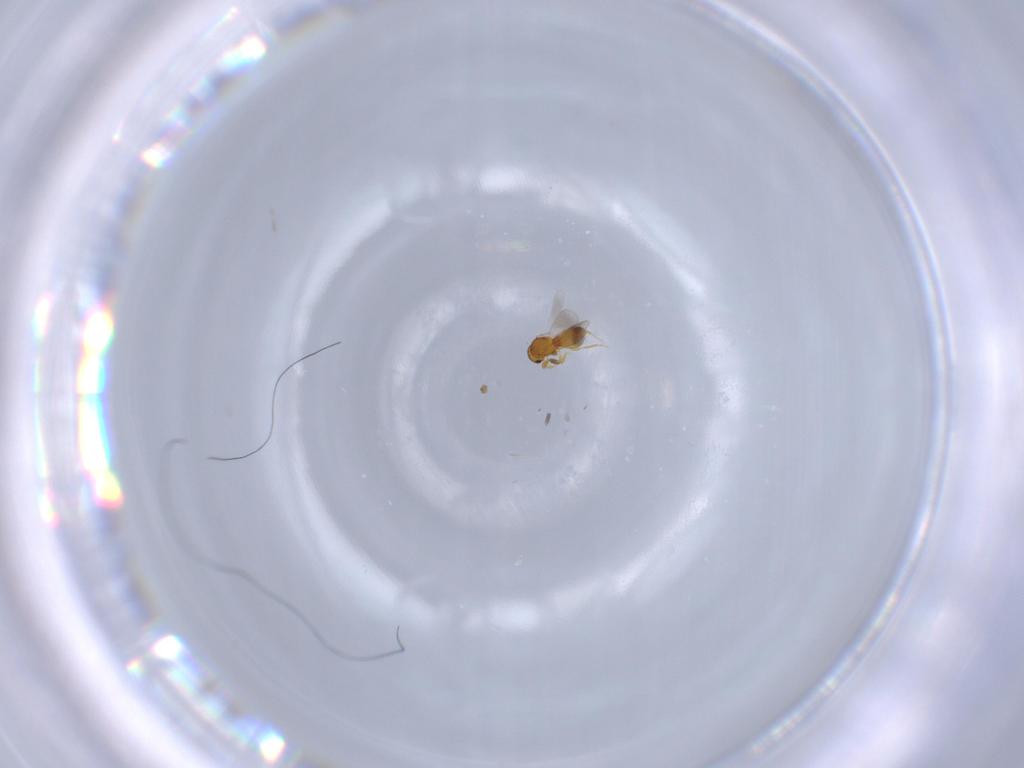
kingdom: Animalia
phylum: Arthropoda
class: Insecta
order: Hymenoptera
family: Platygastridae
